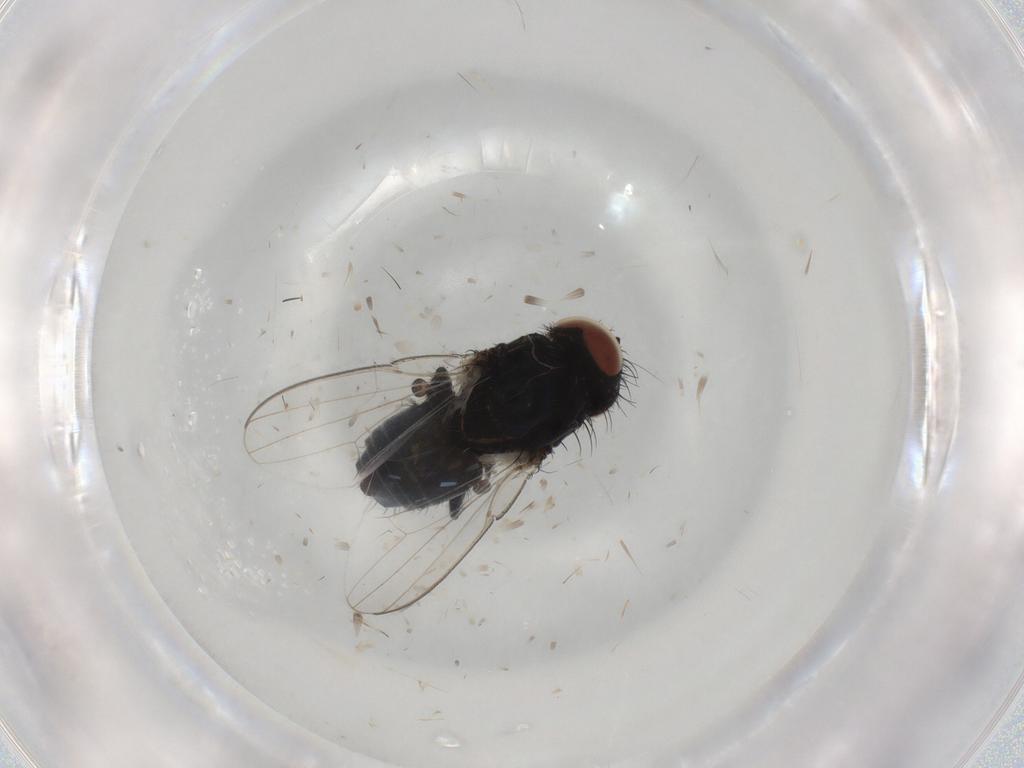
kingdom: Animalia
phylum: Arthropoda
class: Insecta
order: Diptera
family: Milichiidae
